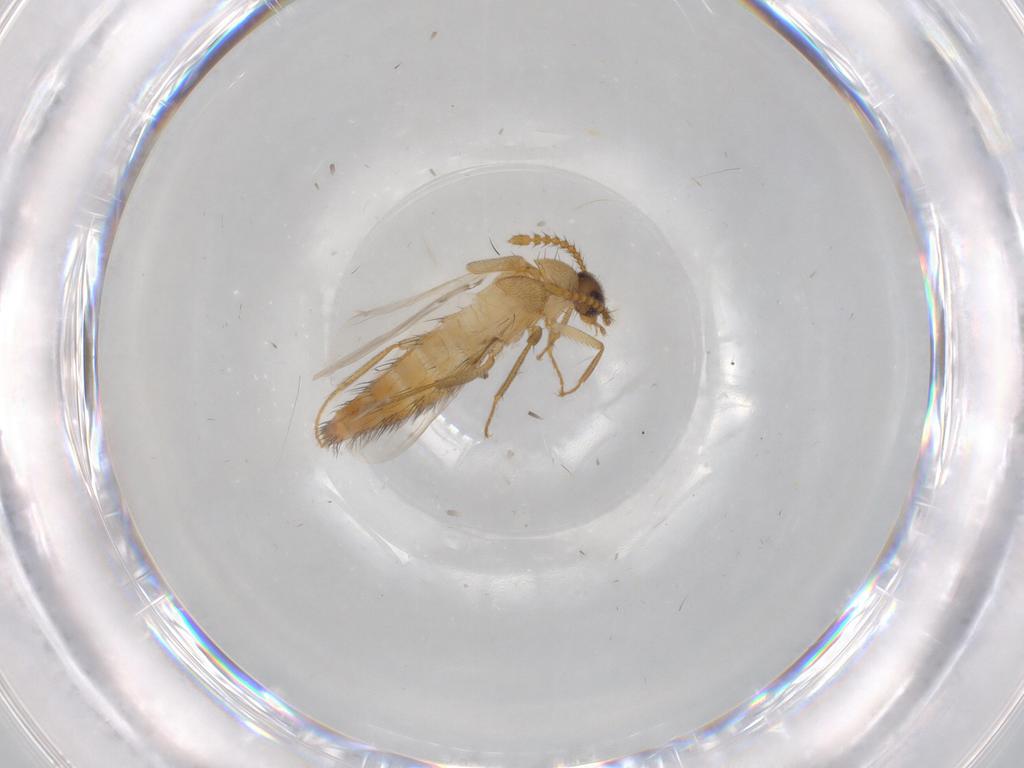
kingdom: Animalia
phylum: Arthropoda
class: Insecta
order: Coleoptera
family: Staphylinidae
